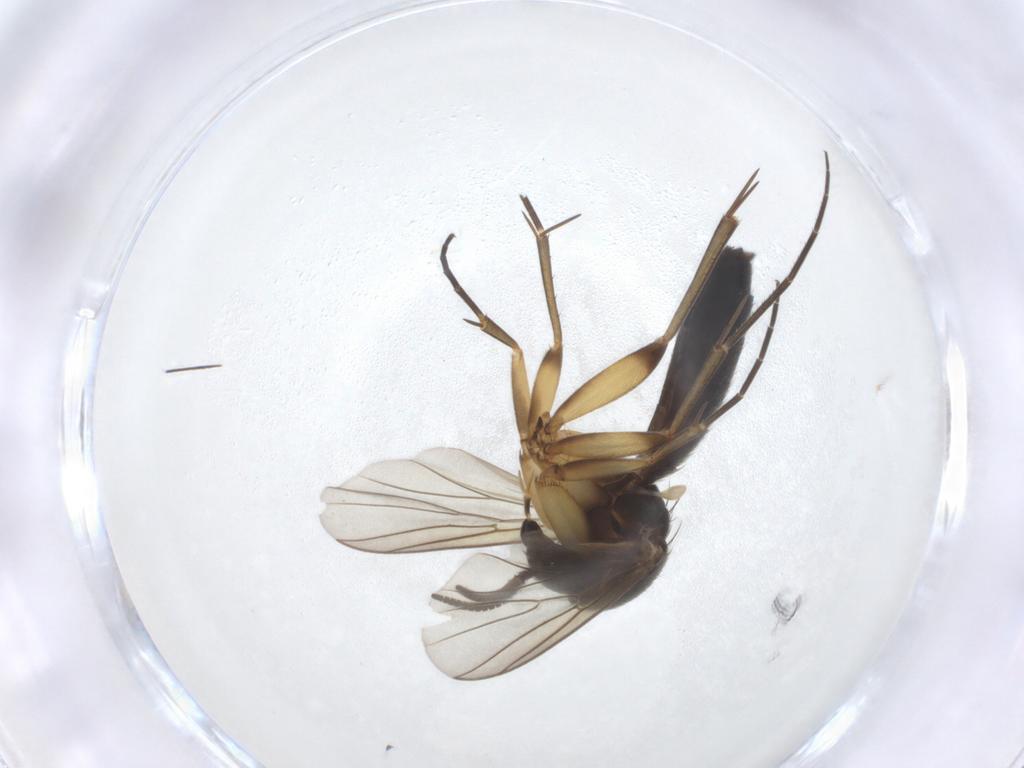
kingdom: Animalia
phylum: Arthropoda
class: Insecta
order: Diptera
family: Mycetophilidae
